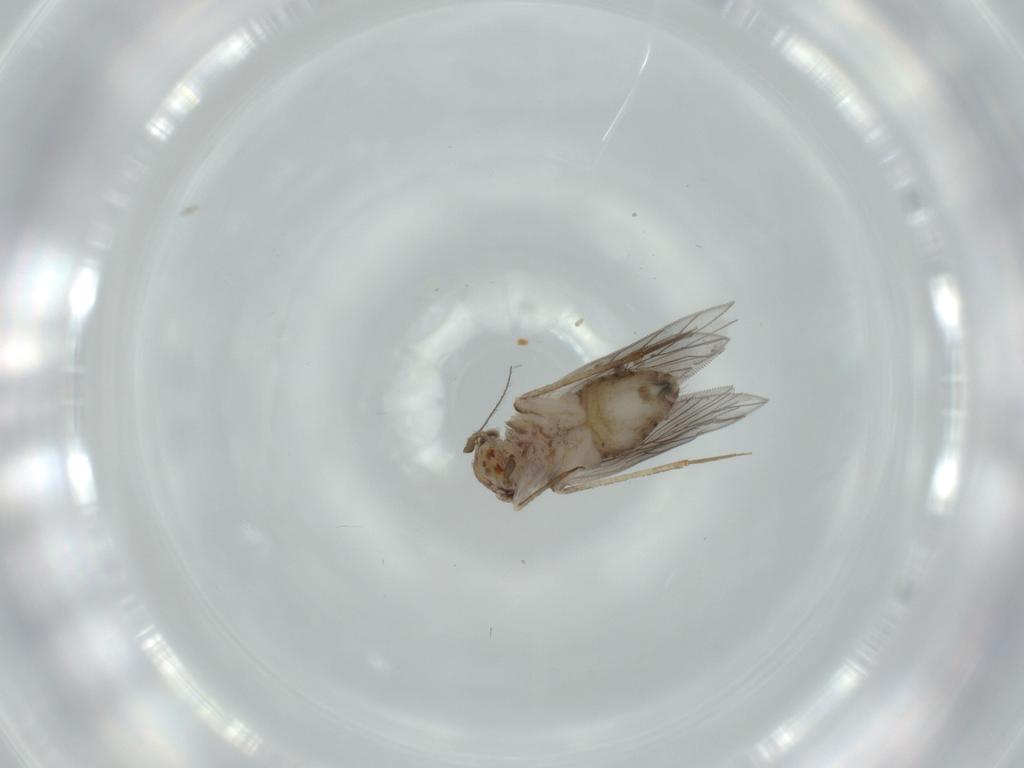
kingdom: Animalia
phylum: Arthropoda
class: Insecta
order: Psocodea
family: Lepidopsocidae
